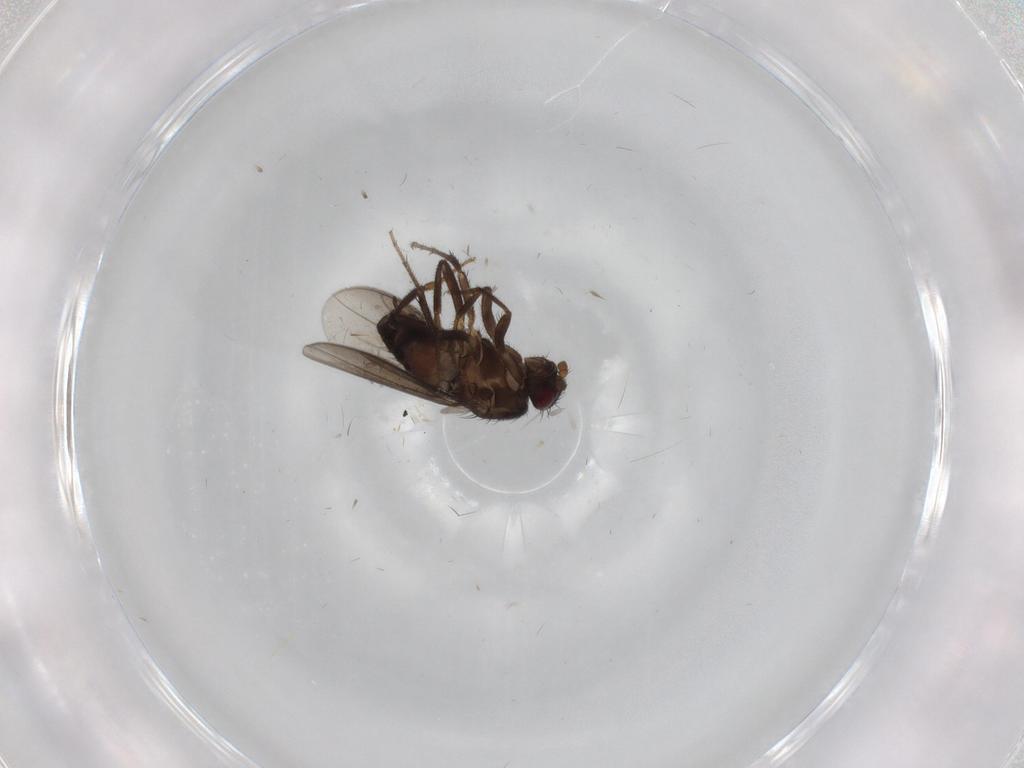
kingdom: Animalia
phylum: Arthropoda
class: Insecta
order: Diptera
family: Sphaeroceridae
